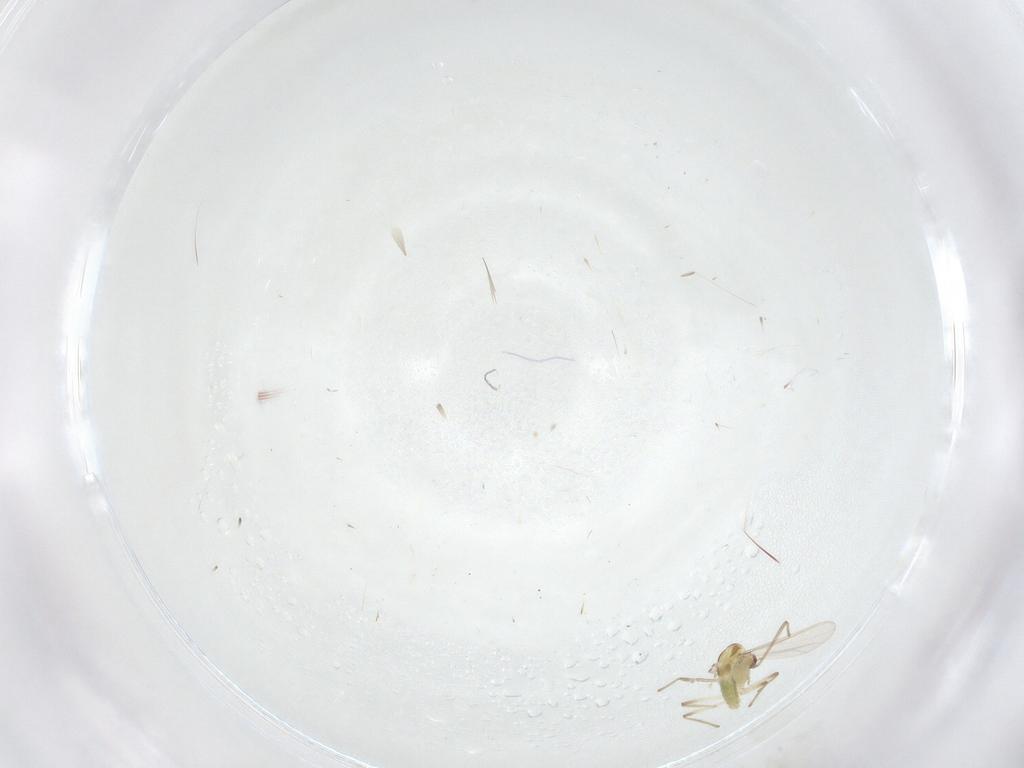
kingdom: Animalia
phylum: Arthropoda
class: Insecta
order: Diptera
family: Chironomidae
